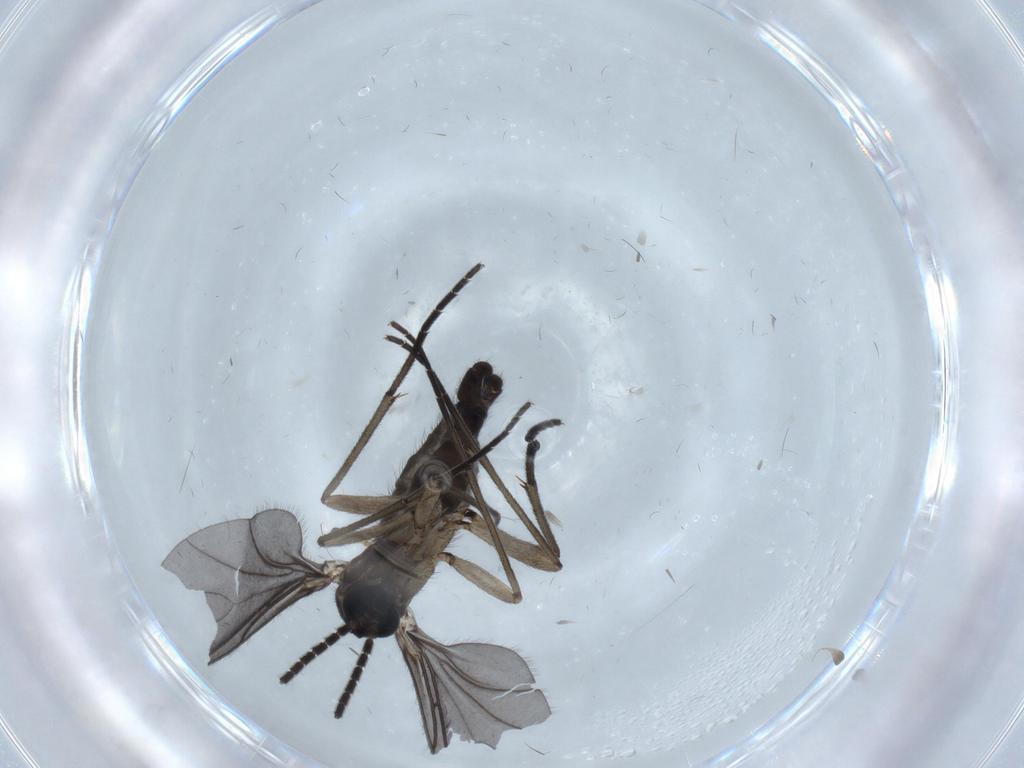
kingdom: Animalia
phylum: Arthropoda
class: Insecta
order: Diptera
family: Sciaridae
